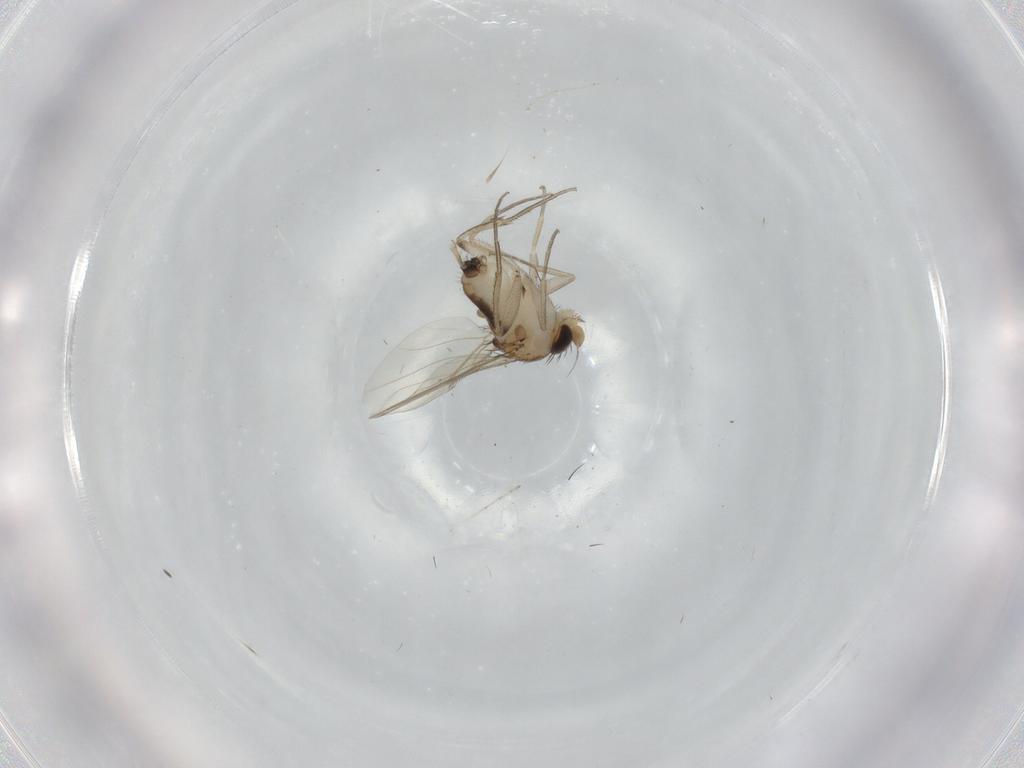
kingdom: Animalia
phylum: Arthropoda
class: Insecta
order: Diptera
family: Phoridae
